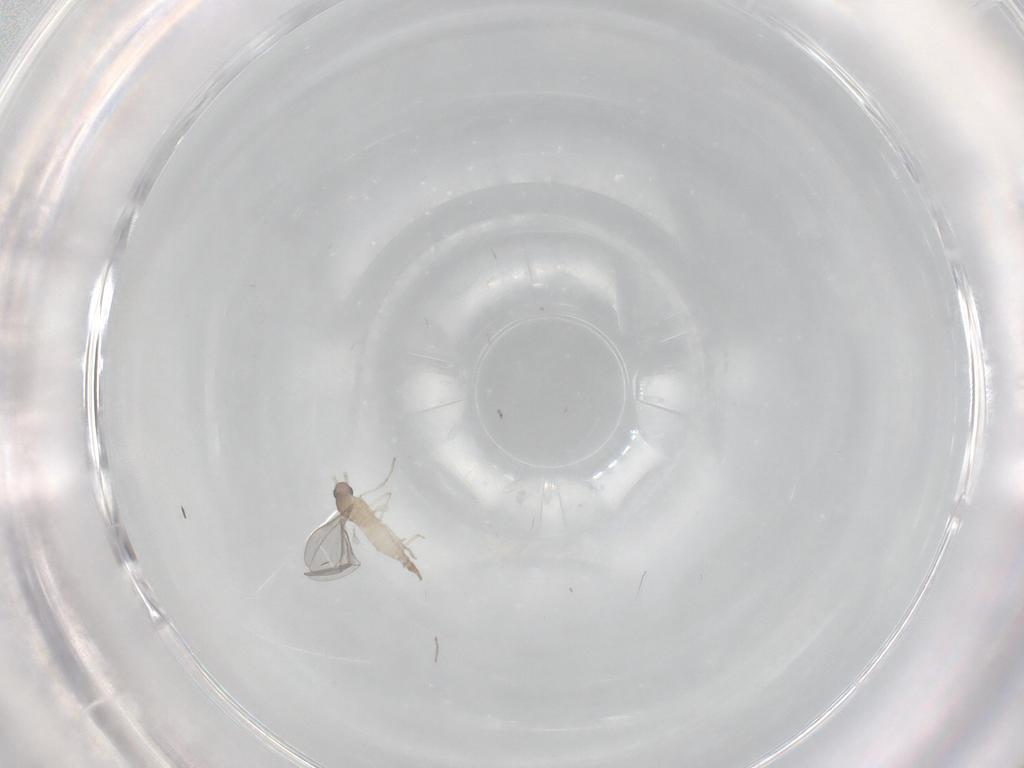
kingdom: Animalia
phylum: Arthropoda
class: Insecta
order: Diptera
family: Cecidomyiidae
